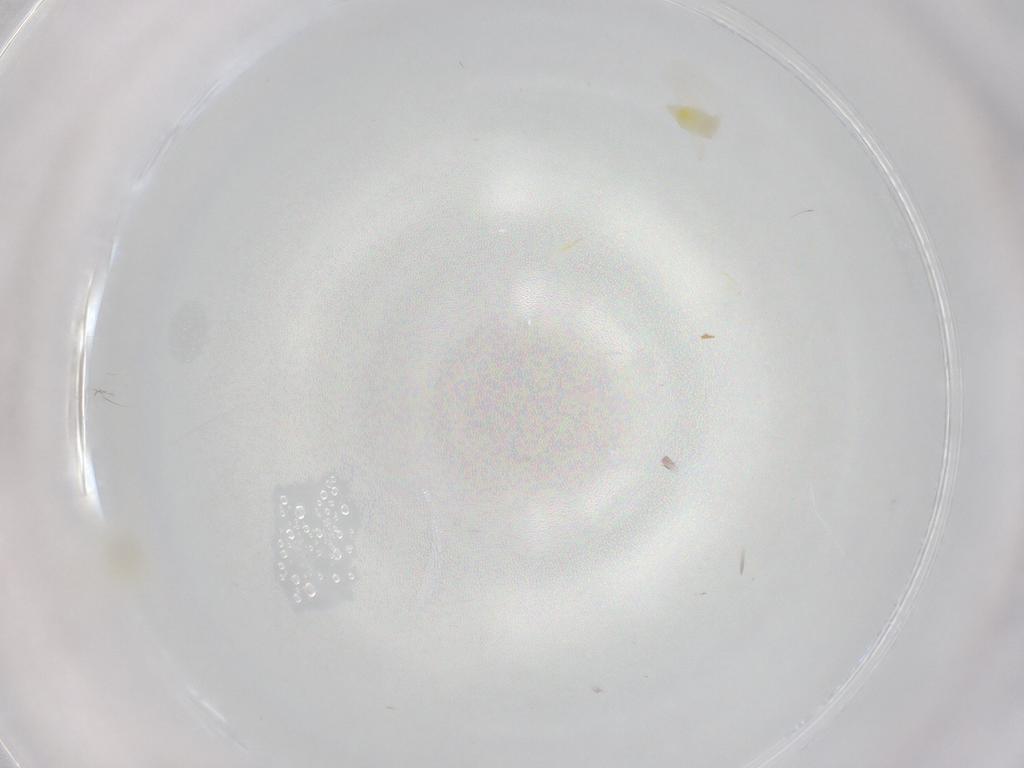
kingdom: Animalia
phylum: Arthropoda
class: Insecta
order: Hemiptera
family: Aleyrodidae
